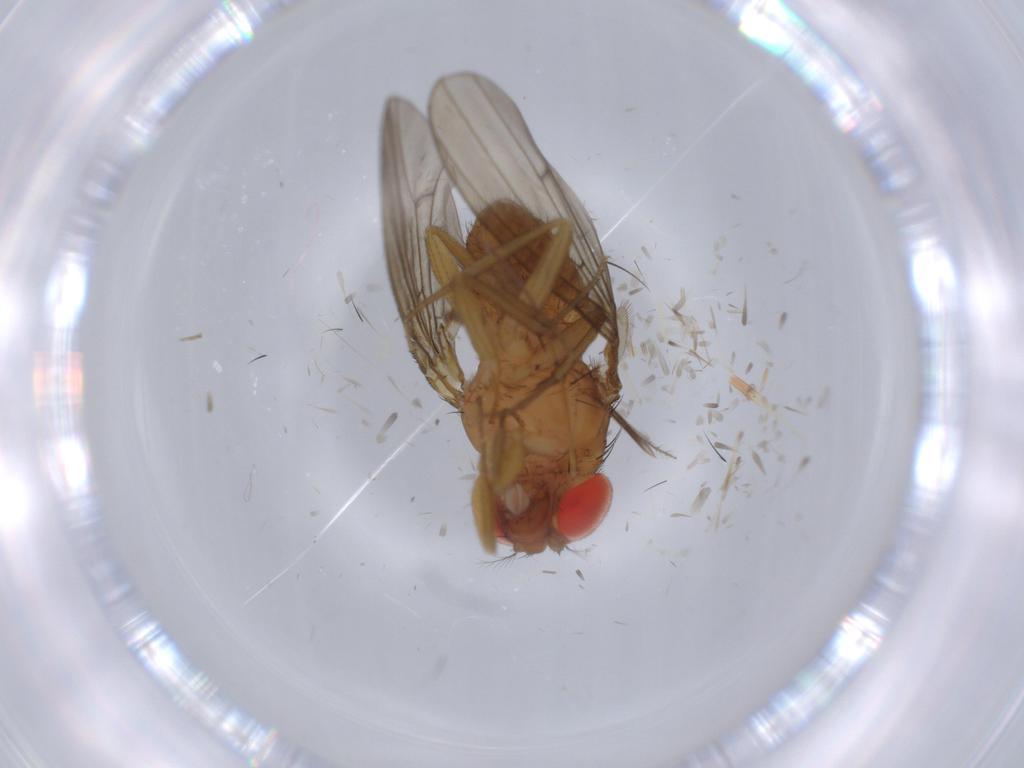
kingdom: Animalia
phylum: Arthropoda
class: Insecta
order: Diptera
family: Drosophilidae
